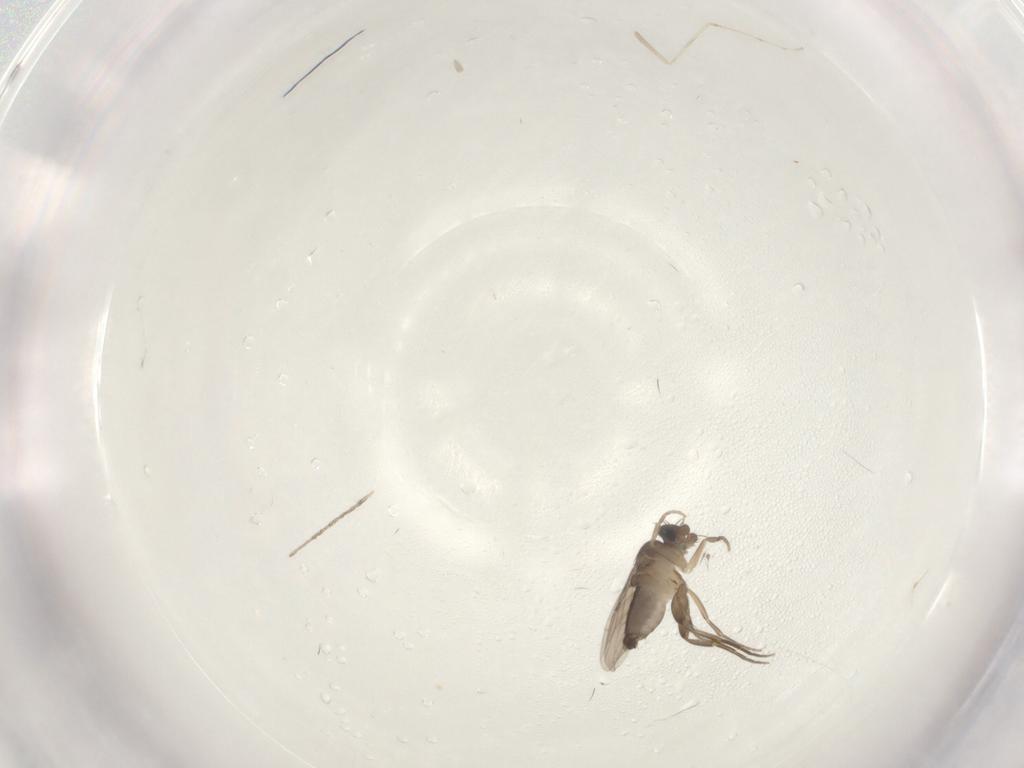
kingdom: Animalia
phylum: Arthropoda
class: Insecta
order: Diptera
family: Phoridae
